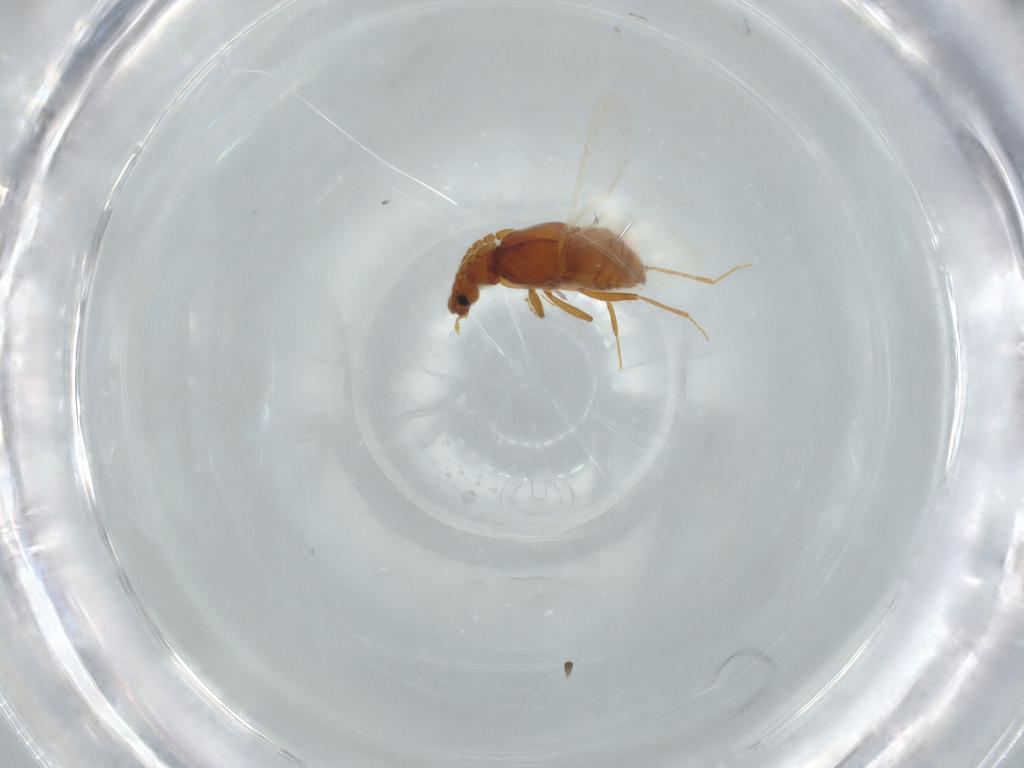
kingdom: Animalia
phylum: Arthropoda
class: Insecta
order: Coleoptera
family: Staphylinidae
